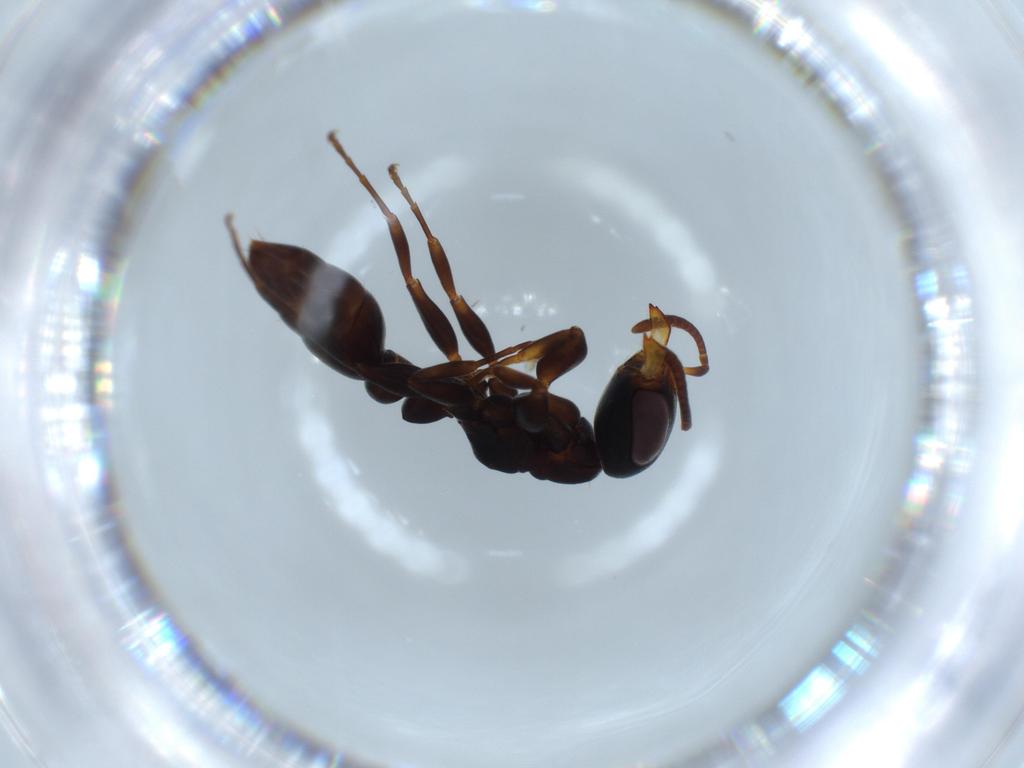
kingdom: Animalia
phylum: Arthropoda
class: Insecta
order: Hymenoptera
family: Formicidae
